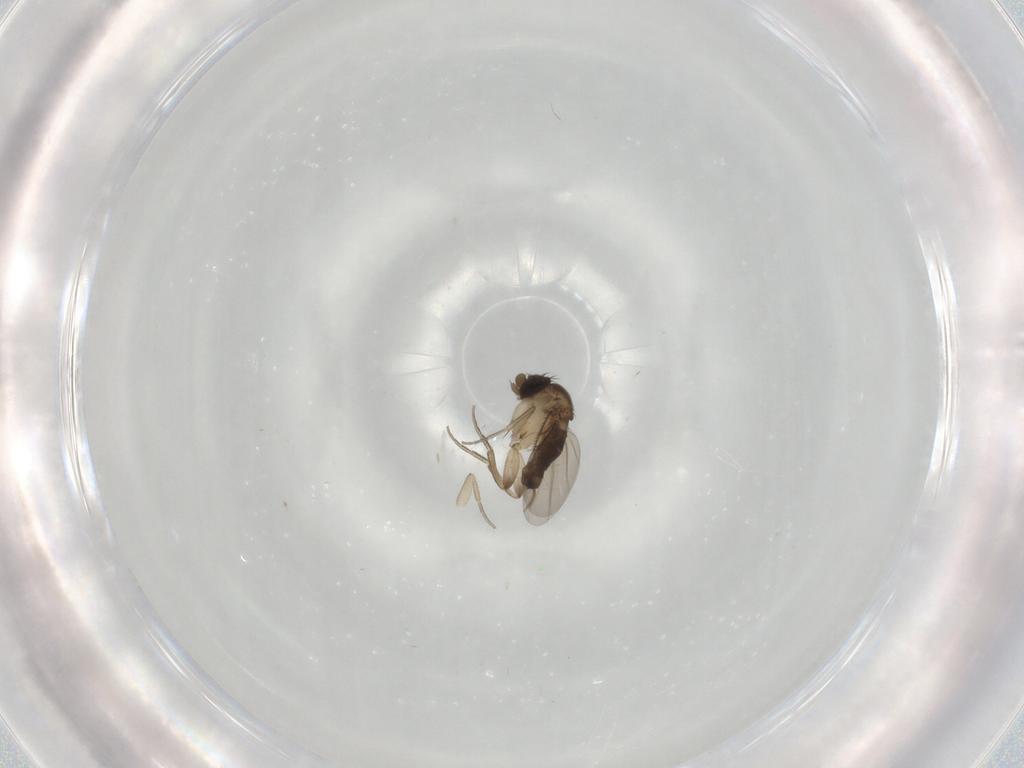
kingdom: Animalia
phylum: Arthropoda
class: Insecta
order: Diptera
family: Phoridae
